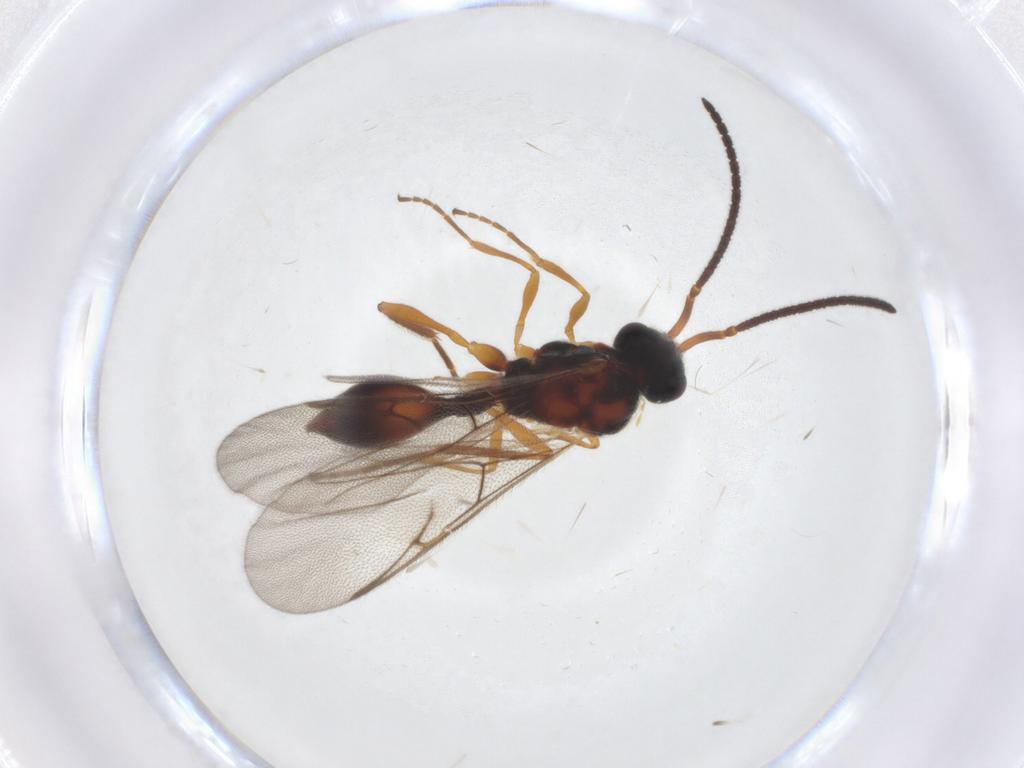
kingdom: Animalia
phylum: Arthropoda
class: Insecta
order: Hymenoptera
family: Diapriidae
